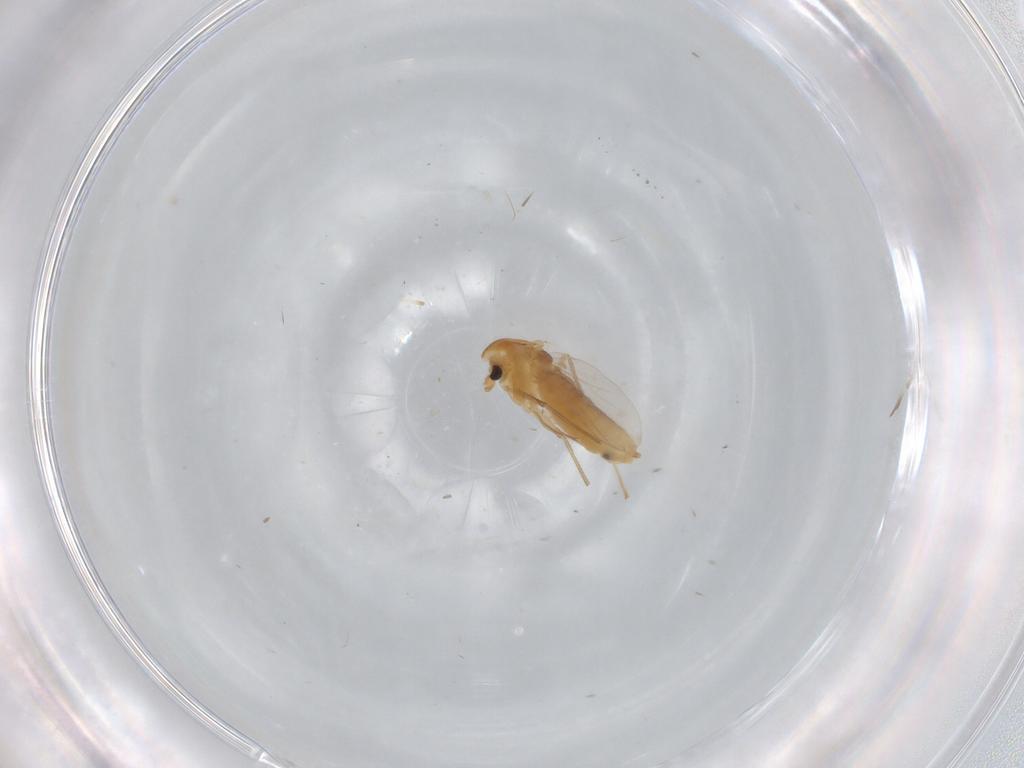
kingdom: Animalia
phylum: Arthropoda
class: Insecta
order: Diptera
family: Chironomidae
